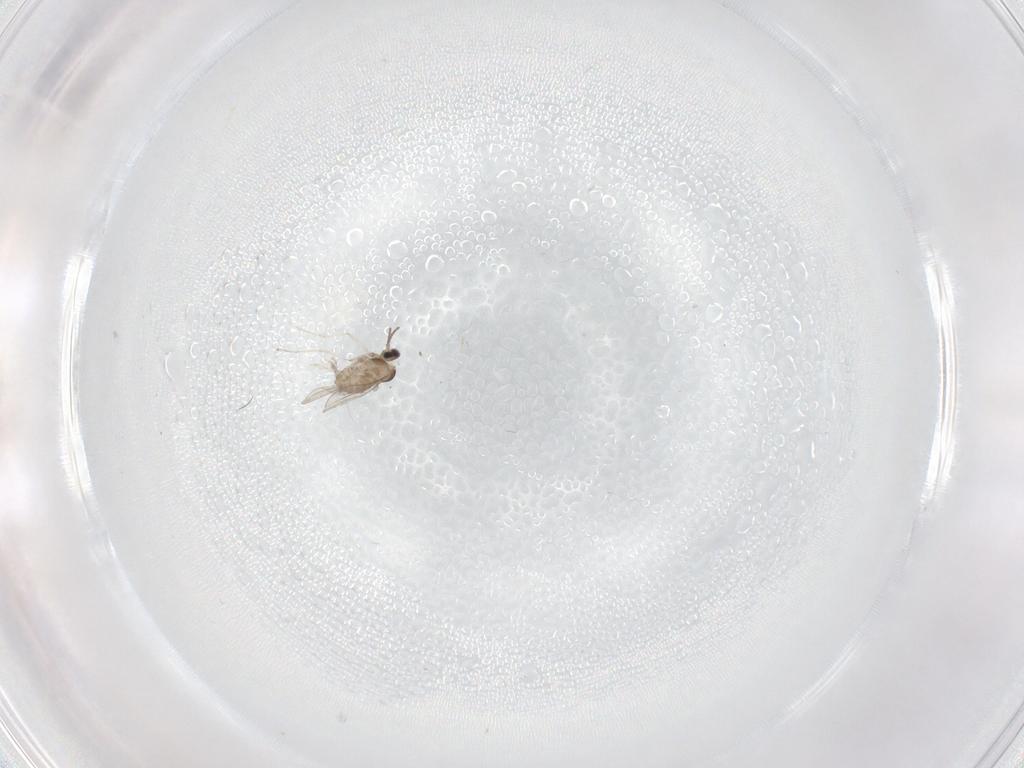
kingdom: Animalia
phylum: Arthropoda
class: Insecta
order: Diptera
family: Cecidomyiidae
